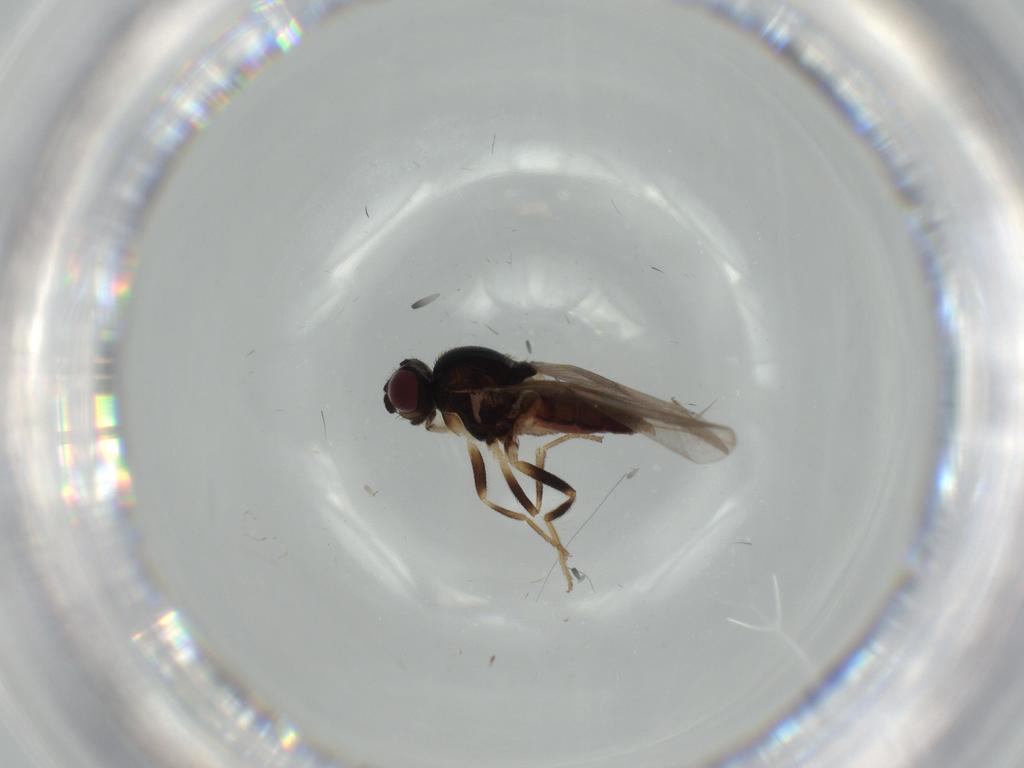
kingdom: Animalia
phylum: Arthropoda
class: Insecta
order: Diptera
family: Chloropidae
